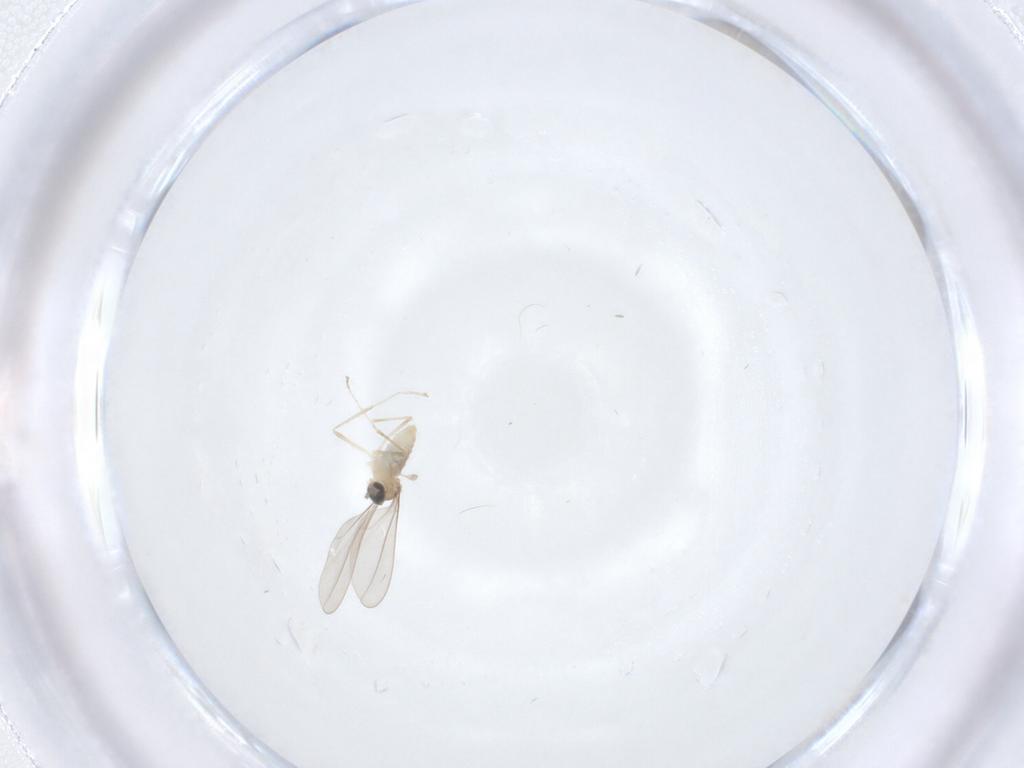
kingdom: Animalia
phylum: Arthropoda
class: Insecta
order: Diptera
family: Cecidomyiidae
